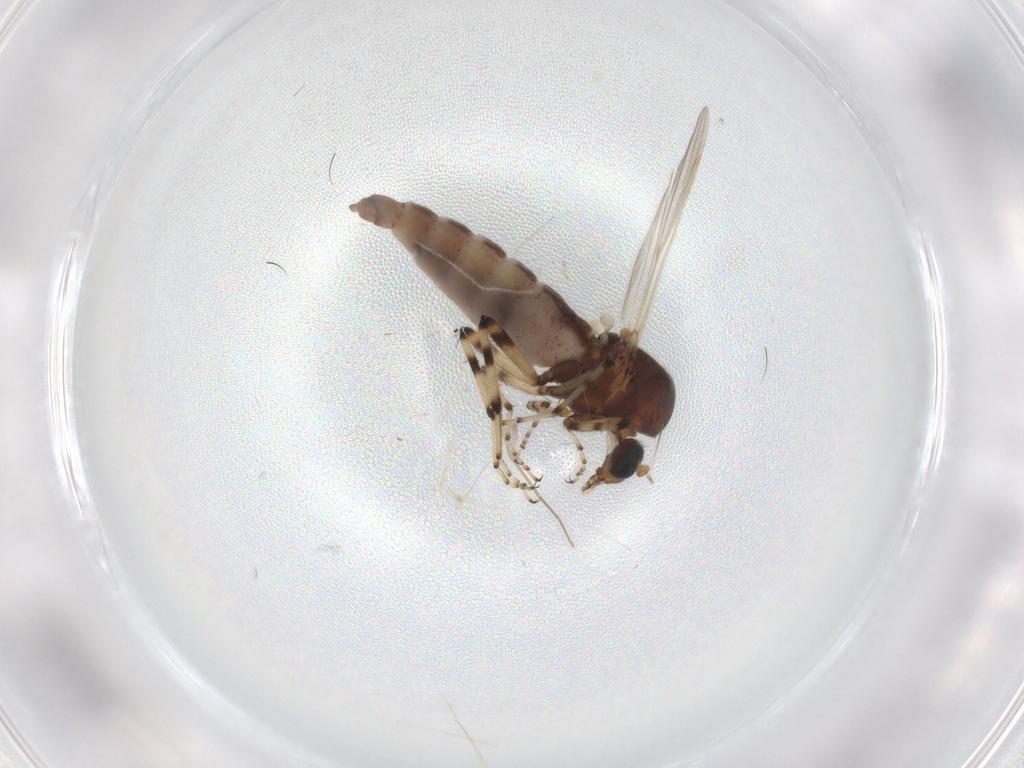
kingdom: Animalia
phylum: Arthropoda
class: Insecta
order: Diptera
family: Ceratopogonidae
